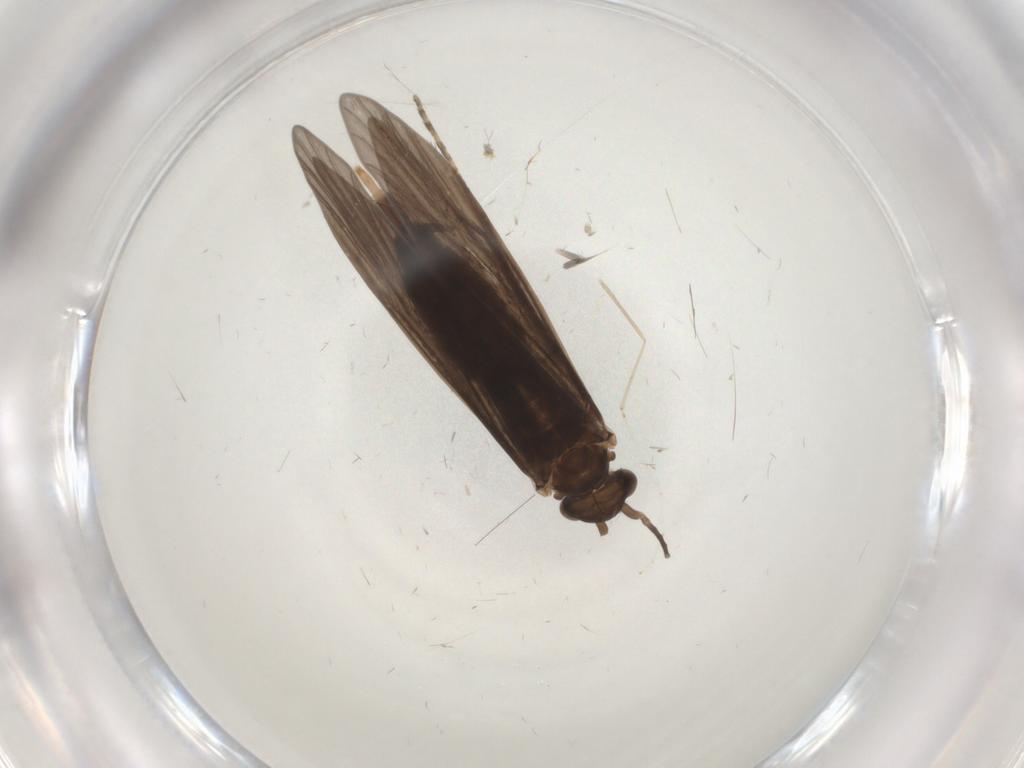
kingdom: Animalia
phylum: Arthropoda
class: Insecta
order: Trichoptera
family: Xiphocentronidae
